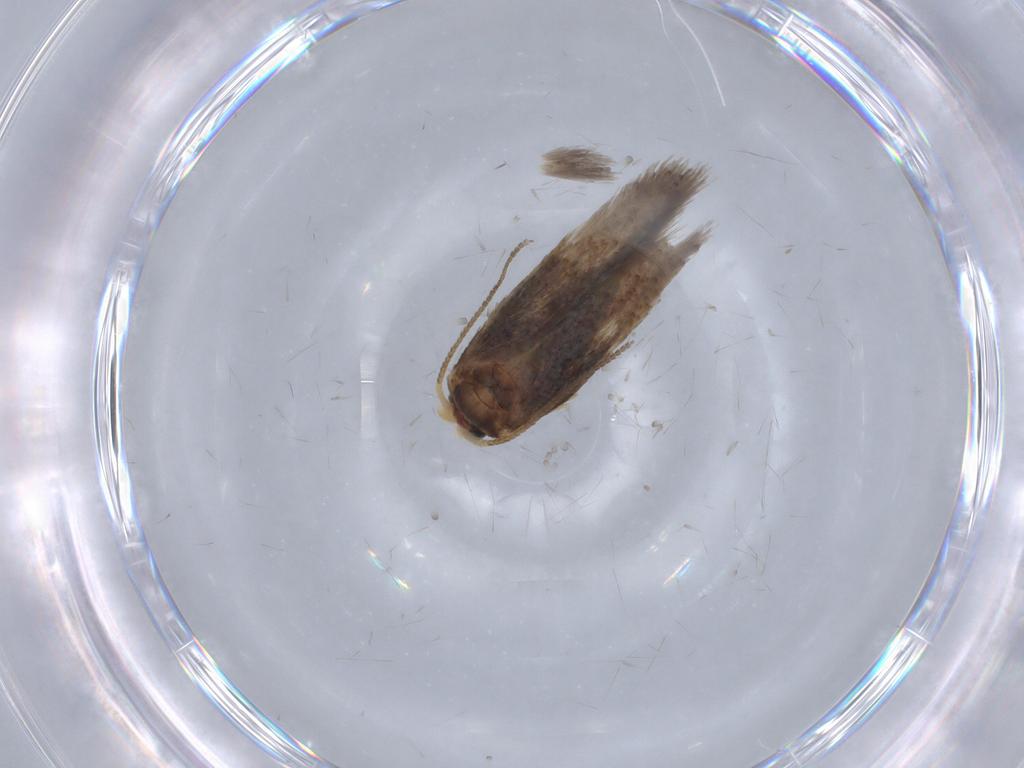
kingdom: Animalia
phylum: Arthropoda
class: Insecta
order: Lepidoptera
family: Nepticulidae
